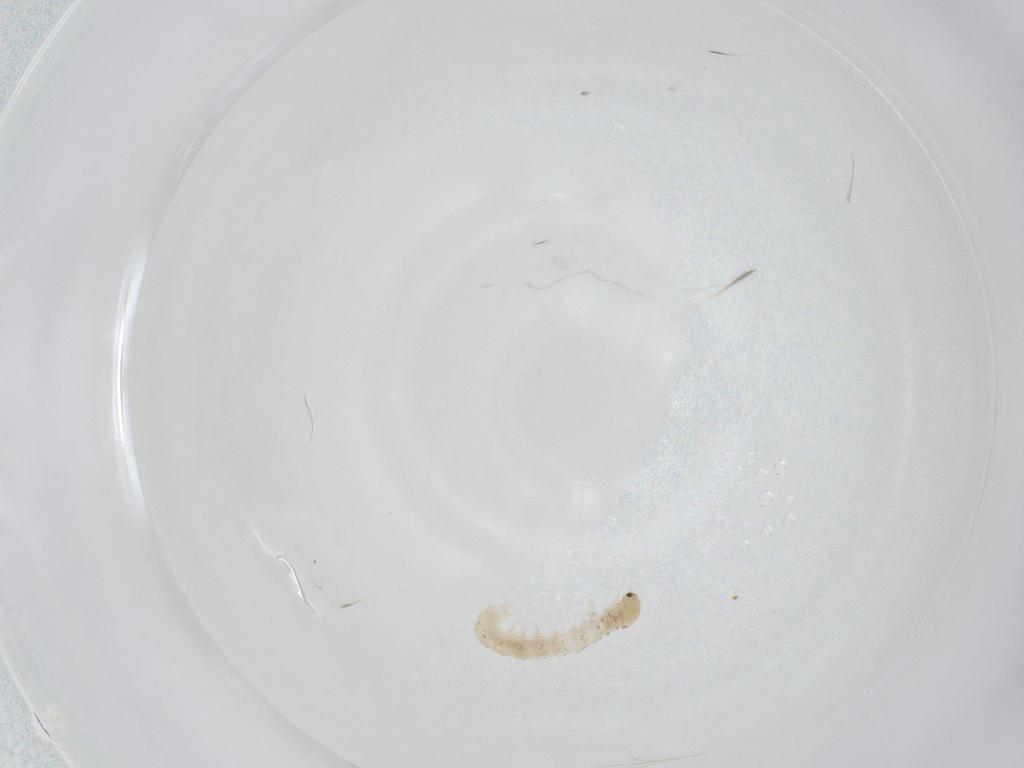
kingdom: Animalia
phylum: Arthropoda
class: Insecta
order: Lepidoptera
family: Scythrididae
